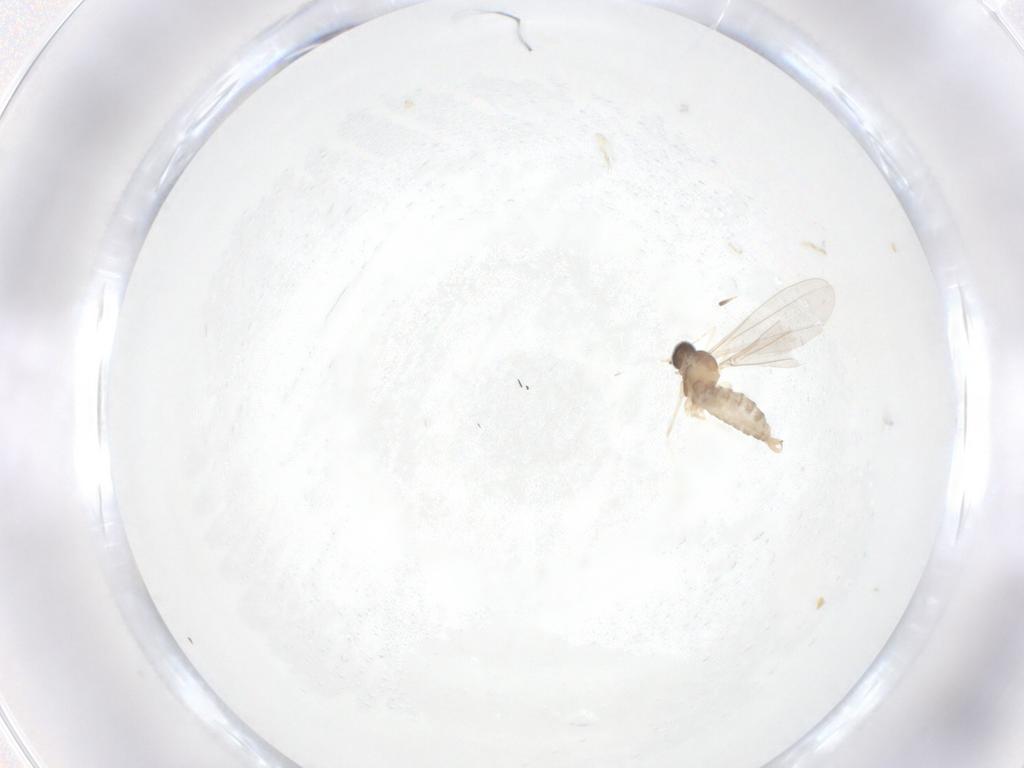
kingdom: Animalia
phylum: Arthropoda
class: Insecta
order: Diptera
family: Cecidomyiidae
